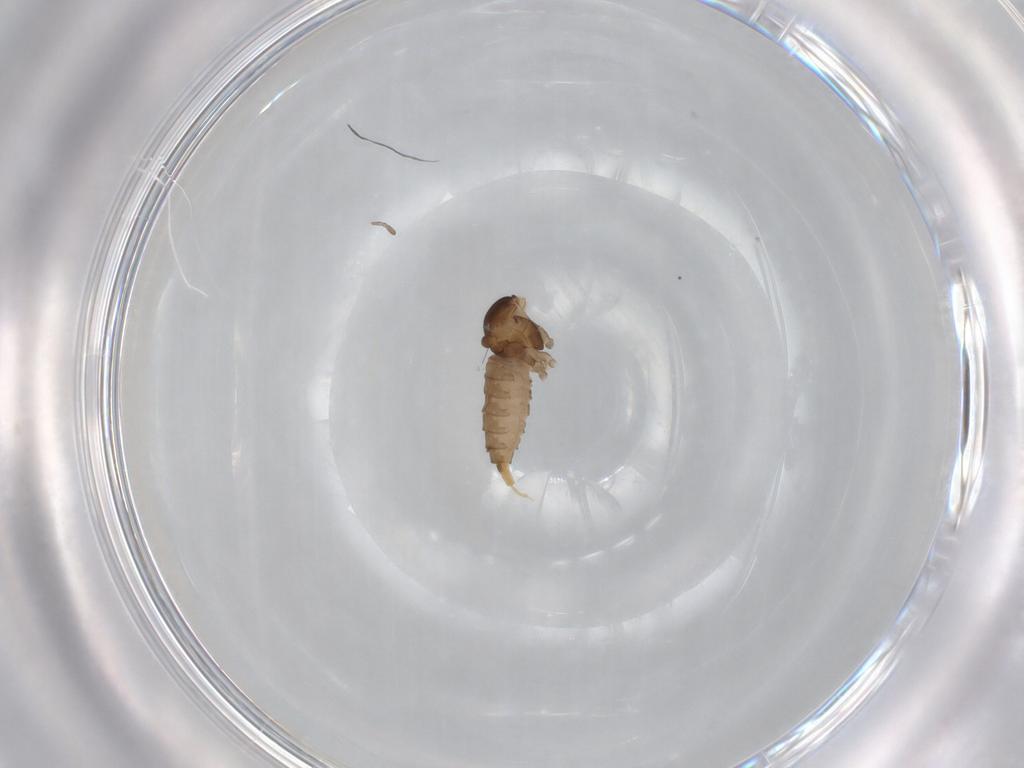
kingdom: Animalia
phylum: Arthropoda
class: Insecta
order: Diptera
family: Cecidomyiidae
